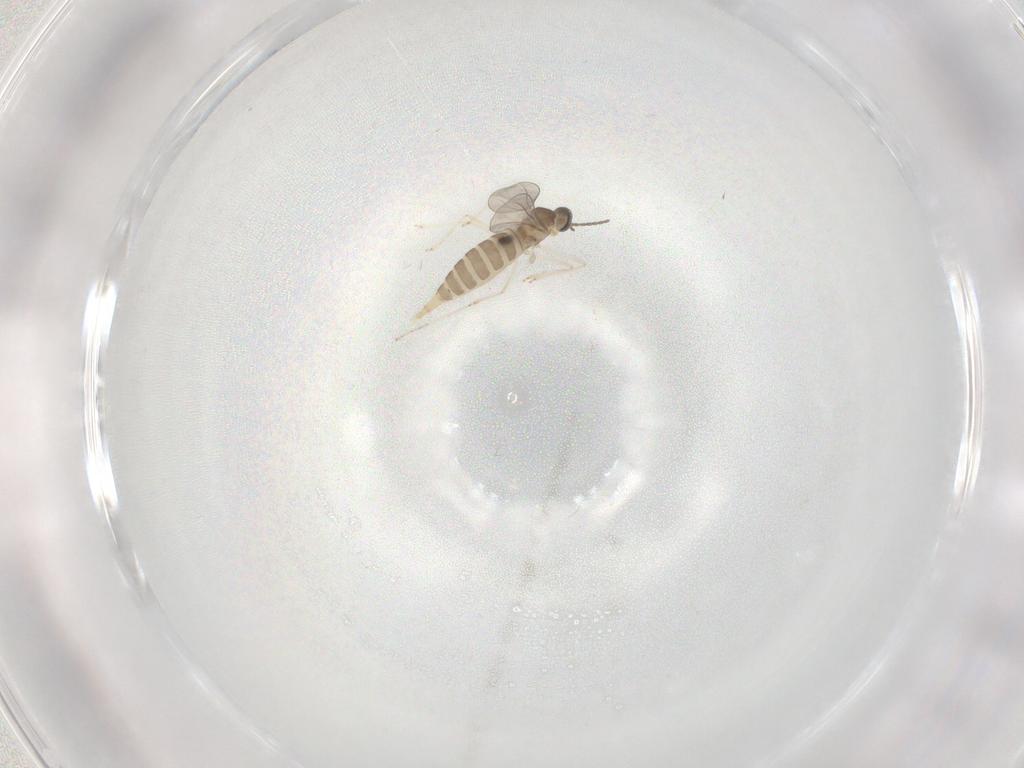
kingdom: Animalia
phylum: Arthropoda
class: Insecta
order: Diptera
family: Cecidomyiidae
